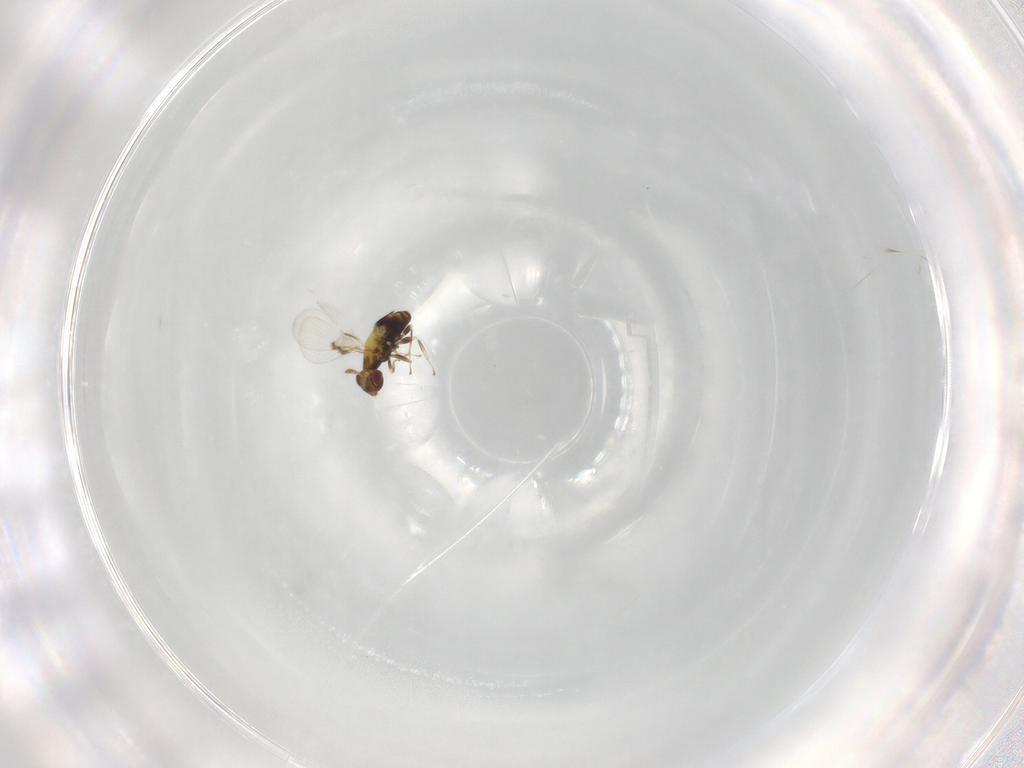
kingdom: Animalia
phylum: Arthropoda
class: Insecta
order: Hymenoptera
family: Trichogrammatidae
